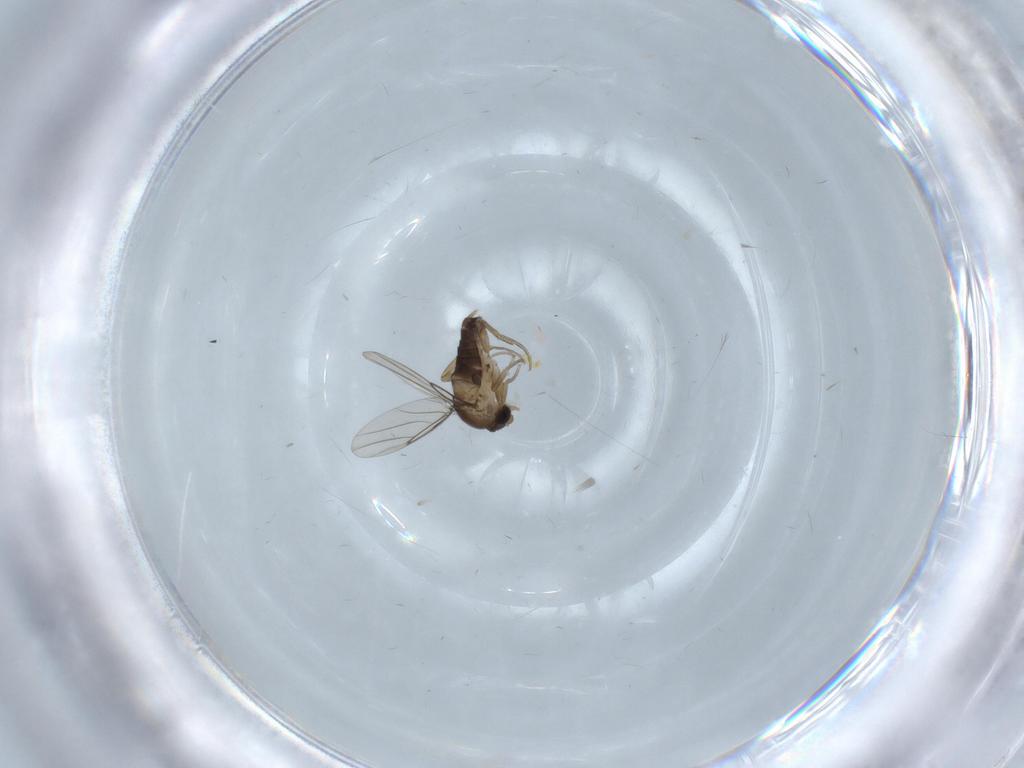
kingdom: Animalia
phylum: Arthropoda
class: Insecta
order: Diptera
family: Phoridae
